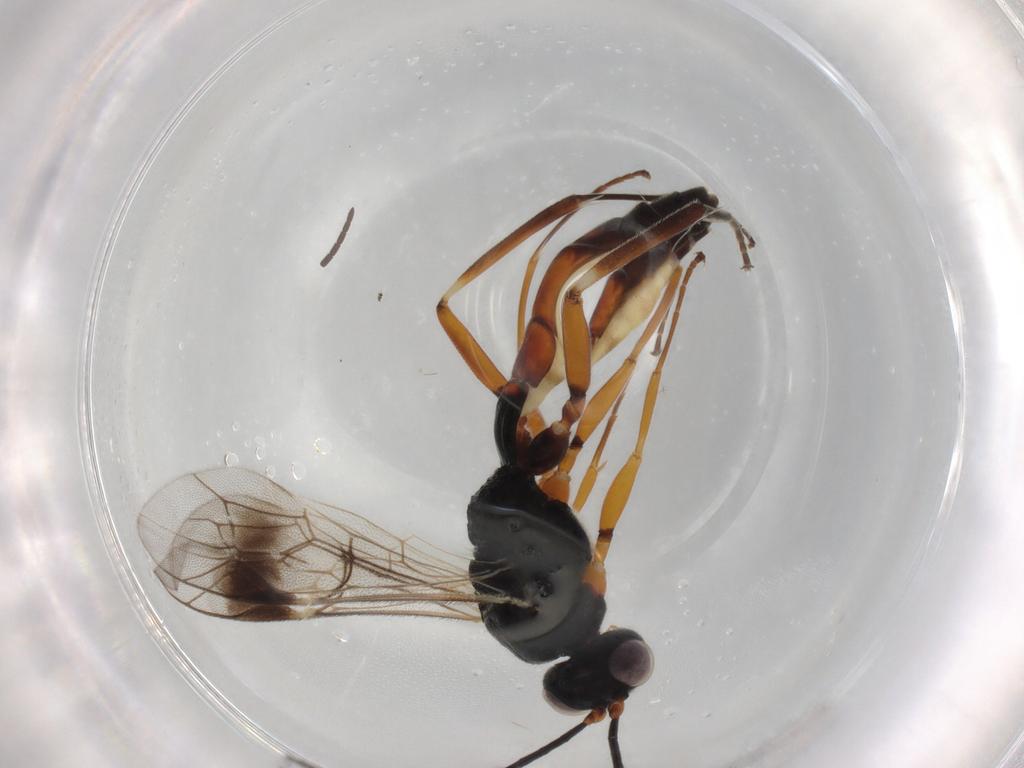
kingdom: Animalia
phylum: Arthropoda
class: Insecta
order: Hymenoptera
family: Ichneumonidae
